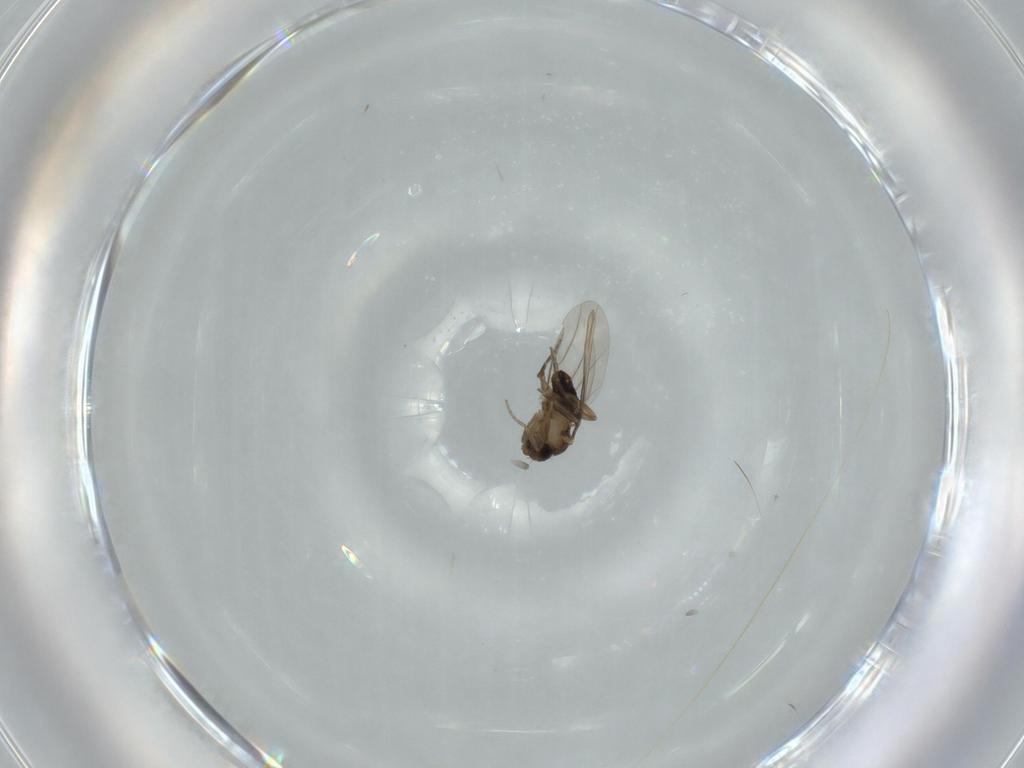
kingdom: Animalia
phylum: Arthropoda
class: Insecta
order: Diptera
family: Phoridae
